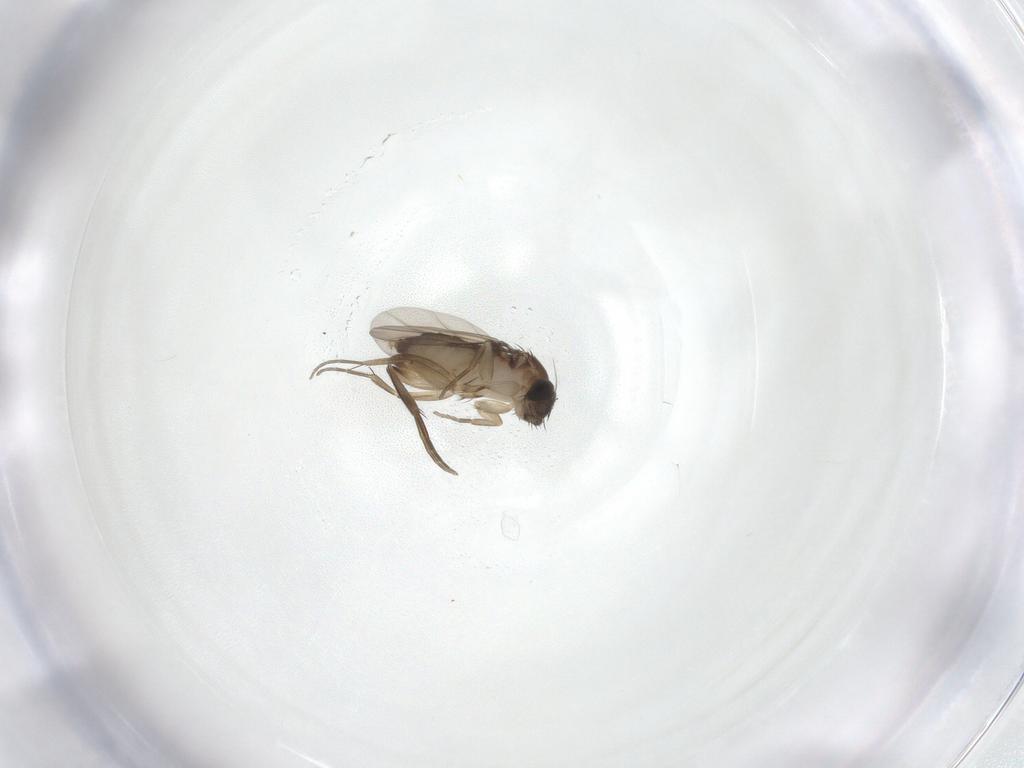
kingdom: Animalia
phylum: Arthropoda
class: Insecta
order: Diptera
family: Phoridae
